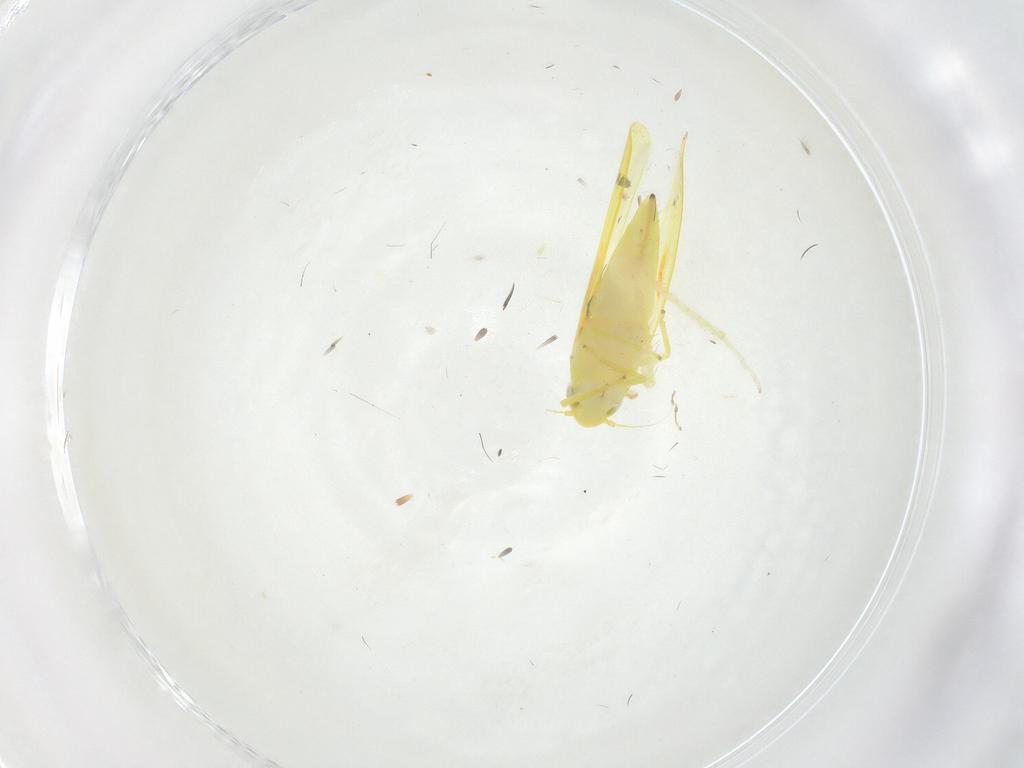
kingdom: Animalia
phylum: Arthropoda
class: Insecta
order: Hemiptera
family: Cicadellidae
